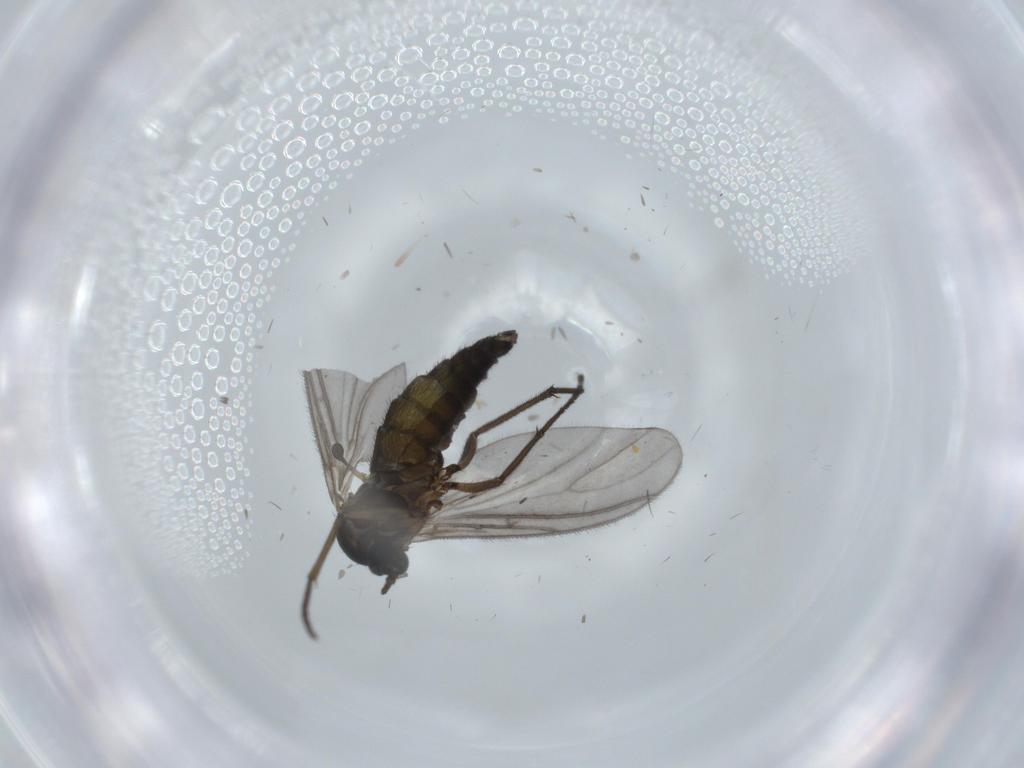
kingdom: Animalia
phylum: Arthropoda
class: Insecta
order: Diptera
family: Sciaridae
